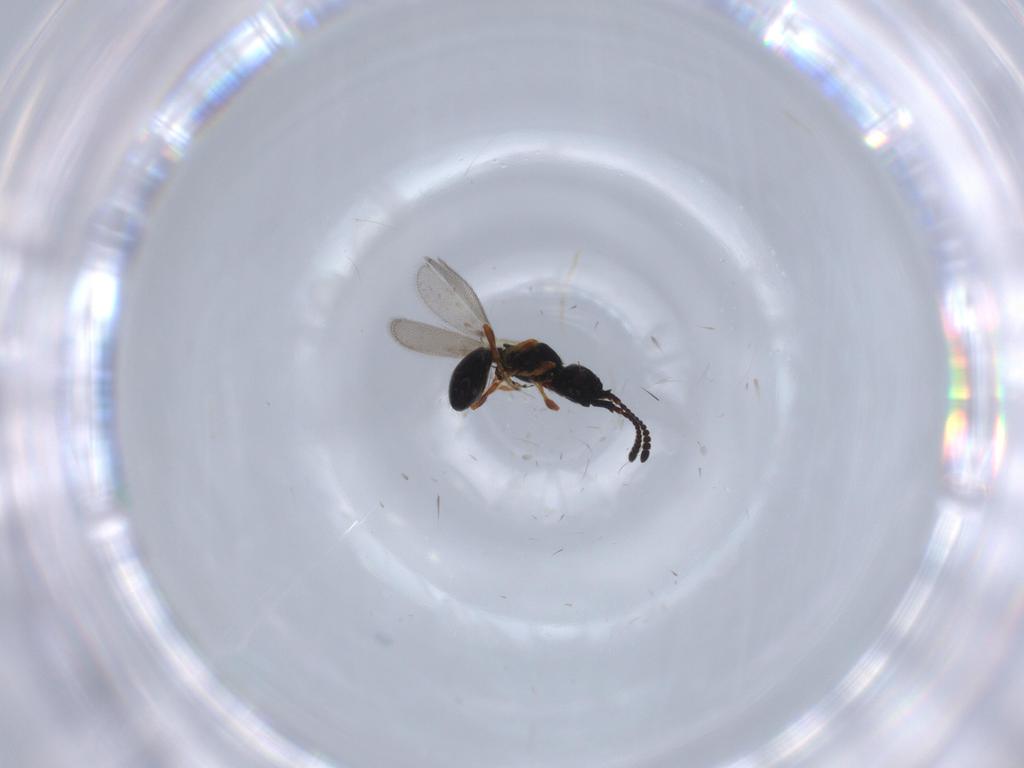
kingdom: Animalia
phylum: Arthropoda
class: Insecta
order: Hymenoptera
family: Diapriidae
